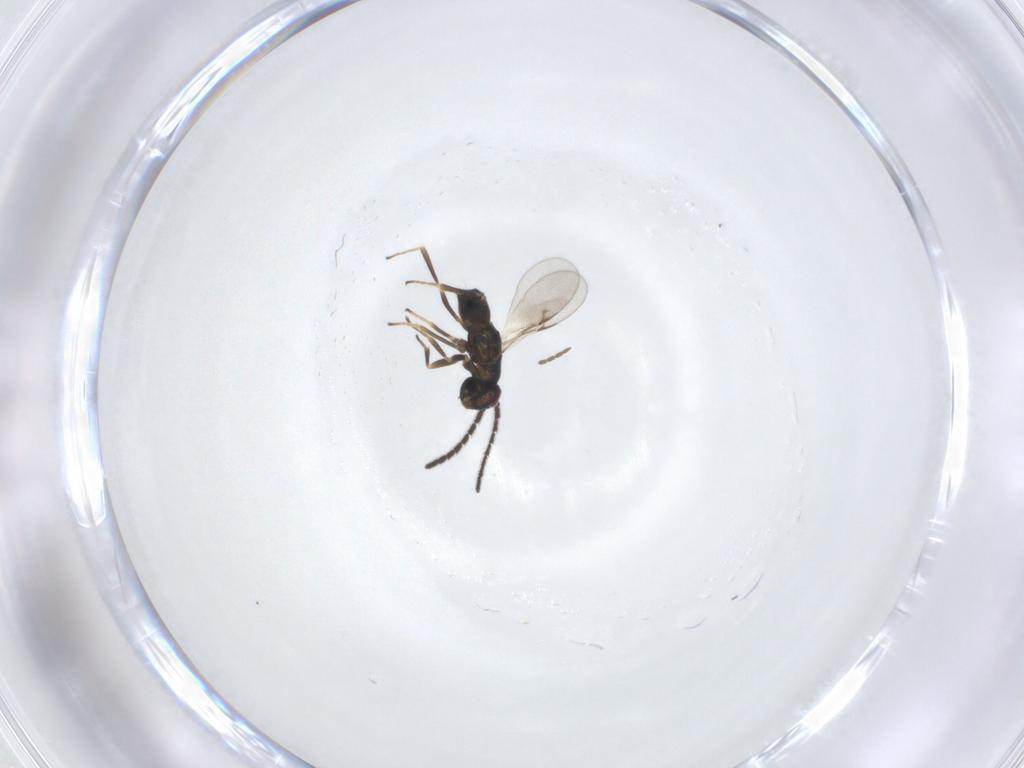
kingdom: Animalia
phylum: Arthropoda
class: Insecta
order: Hymenoptera
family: Encyrtidae
